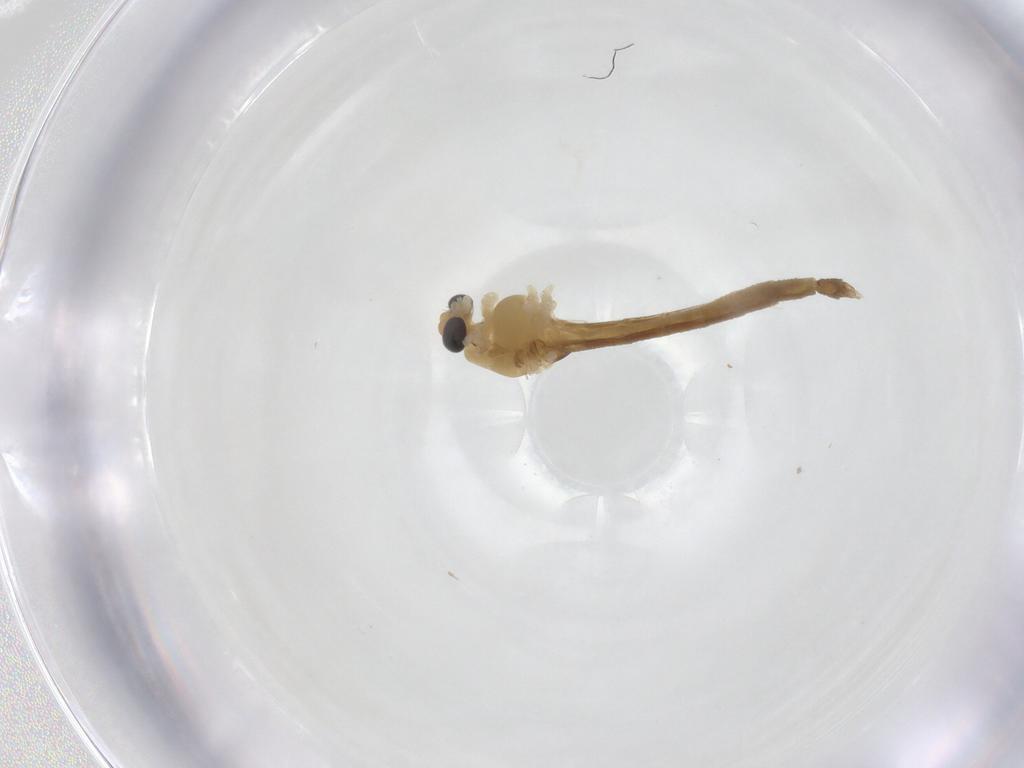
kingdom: Animalia
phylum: Arthropoda
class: Insecta
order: Diptera
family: Chironomidae
